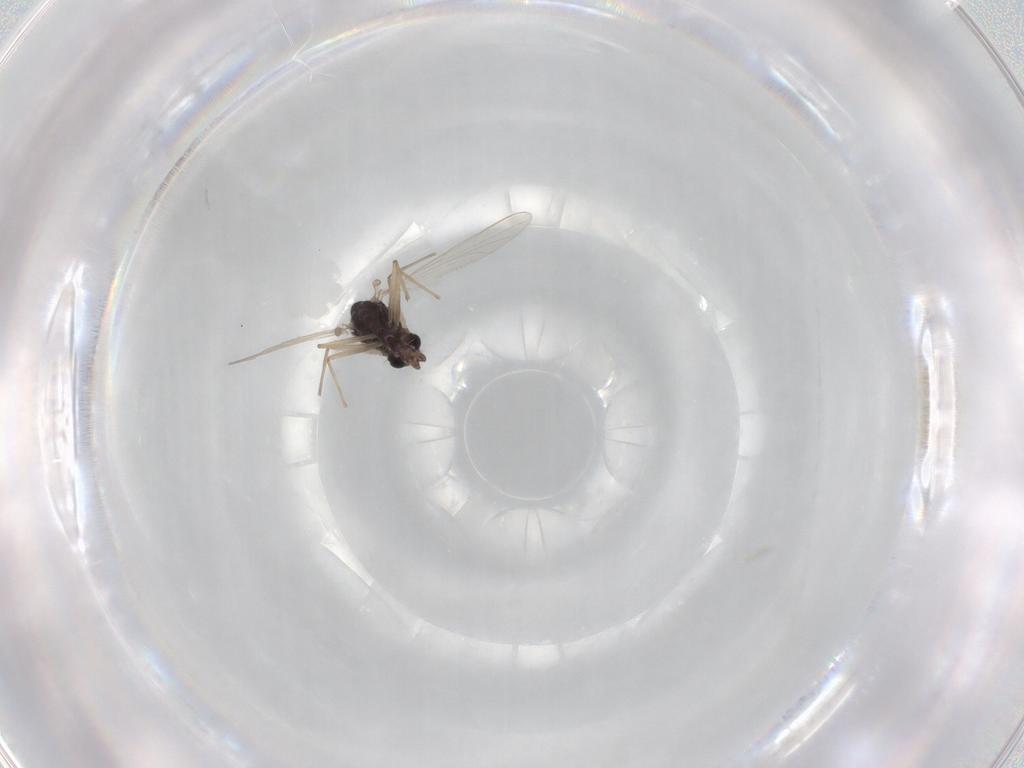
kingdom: Animalia
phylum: Arthropoda
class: Insecta
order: Diptera
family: Chironomidae
